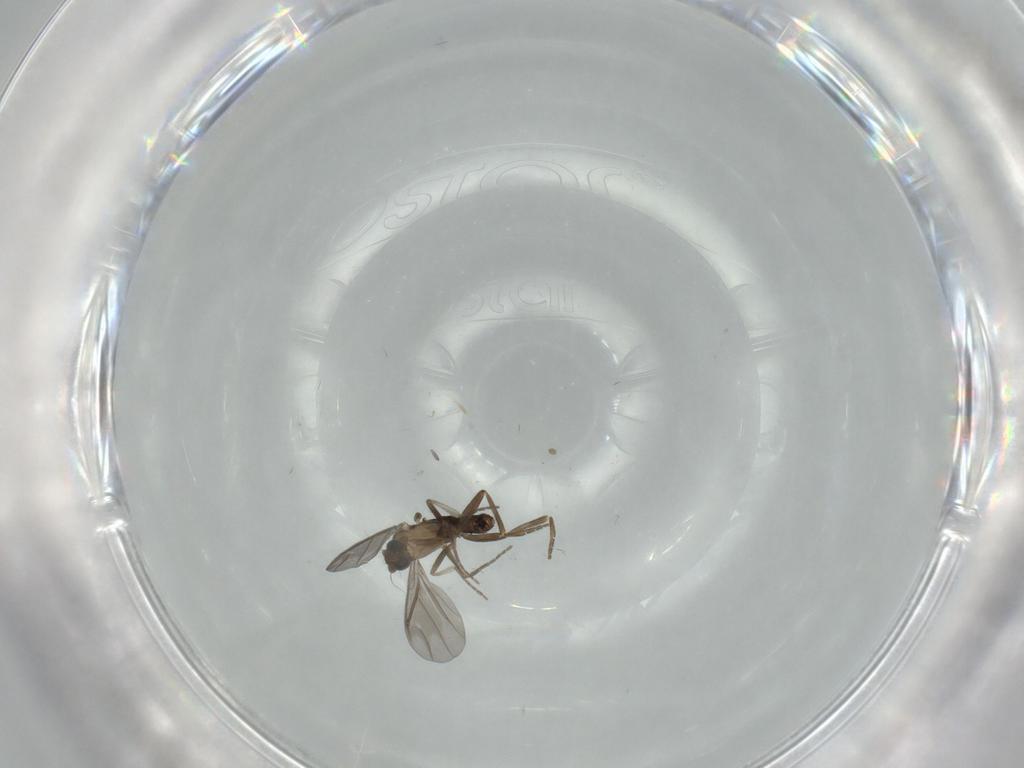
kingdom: Animalia
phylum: Arthropoda
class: Insecta
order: Diptera
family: Phoridae
